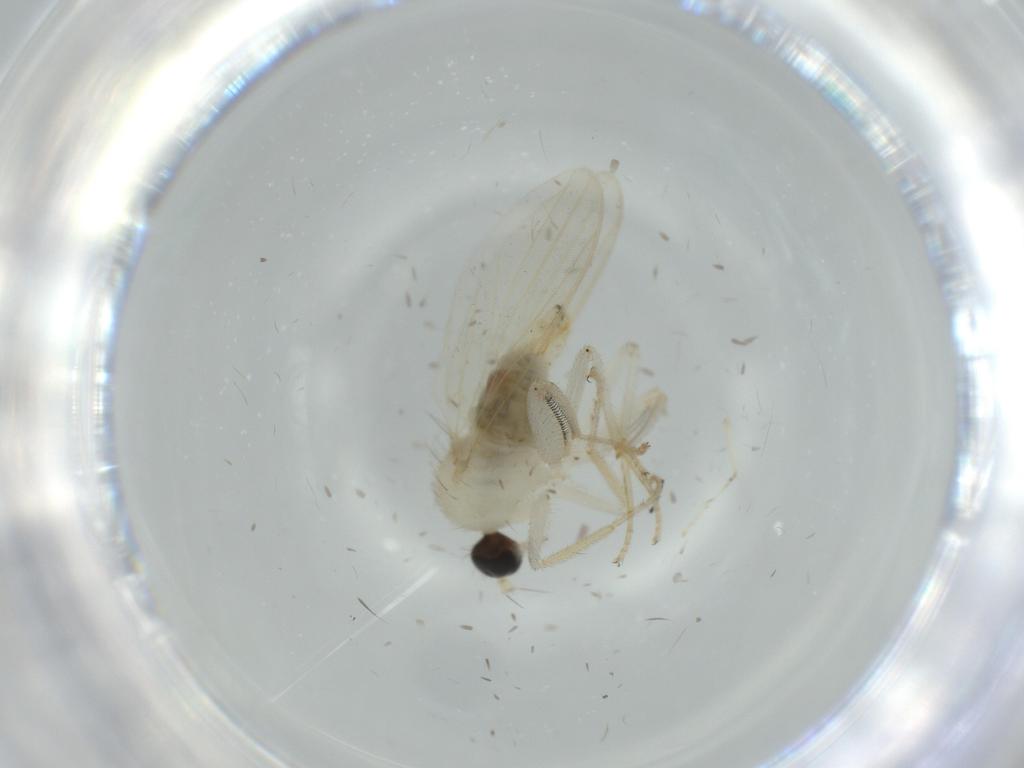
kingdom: Animalia
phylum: Arthropoda
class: Insecta
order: Diptera
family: Hybotidae
